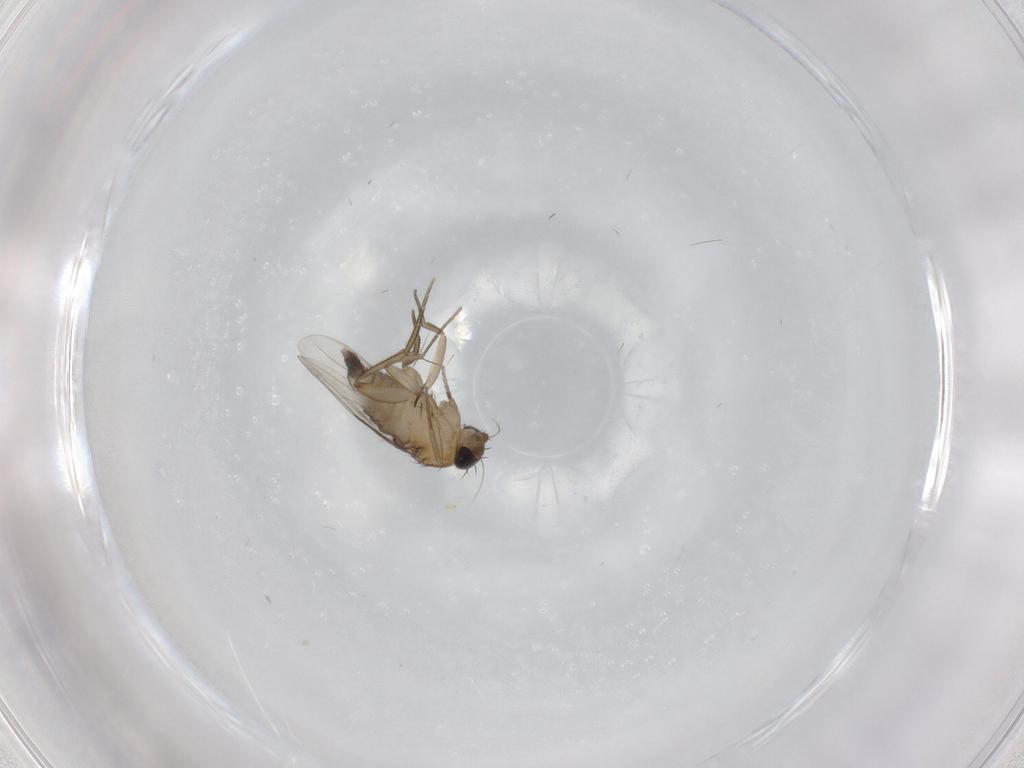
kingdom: Animalia
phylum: Arthropoda
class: Insecta
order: Diptera
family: Phoridae
